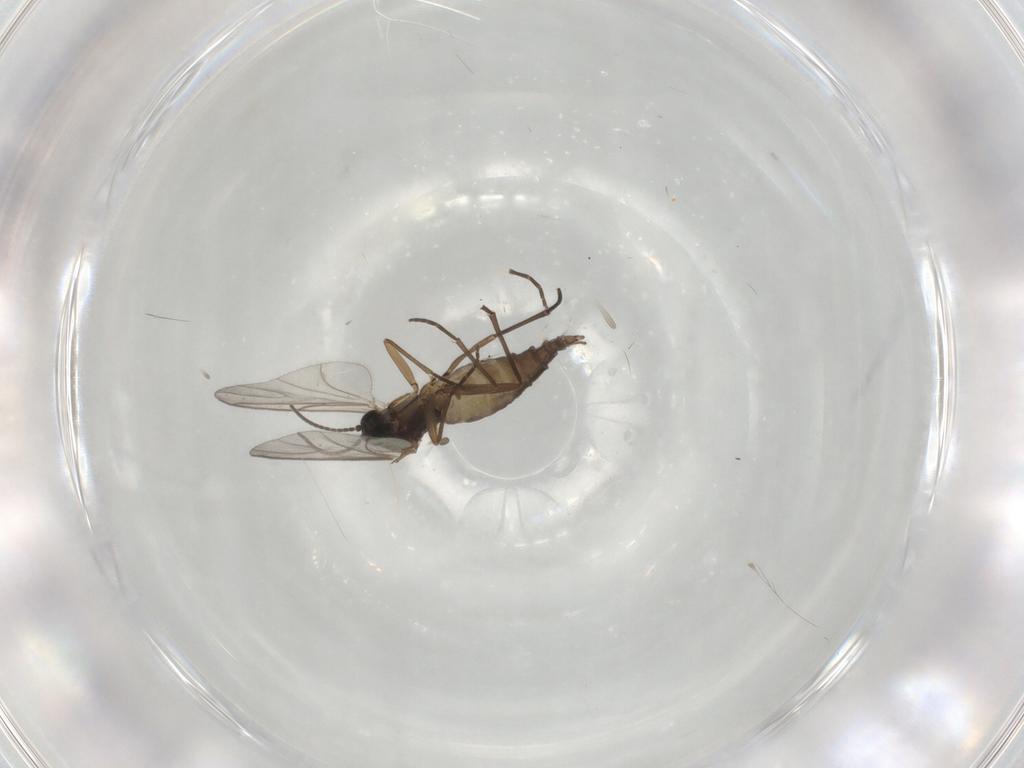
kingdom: Animalia
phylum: Arthropoda
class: Insecta
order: Diptera
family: Sciaridae
